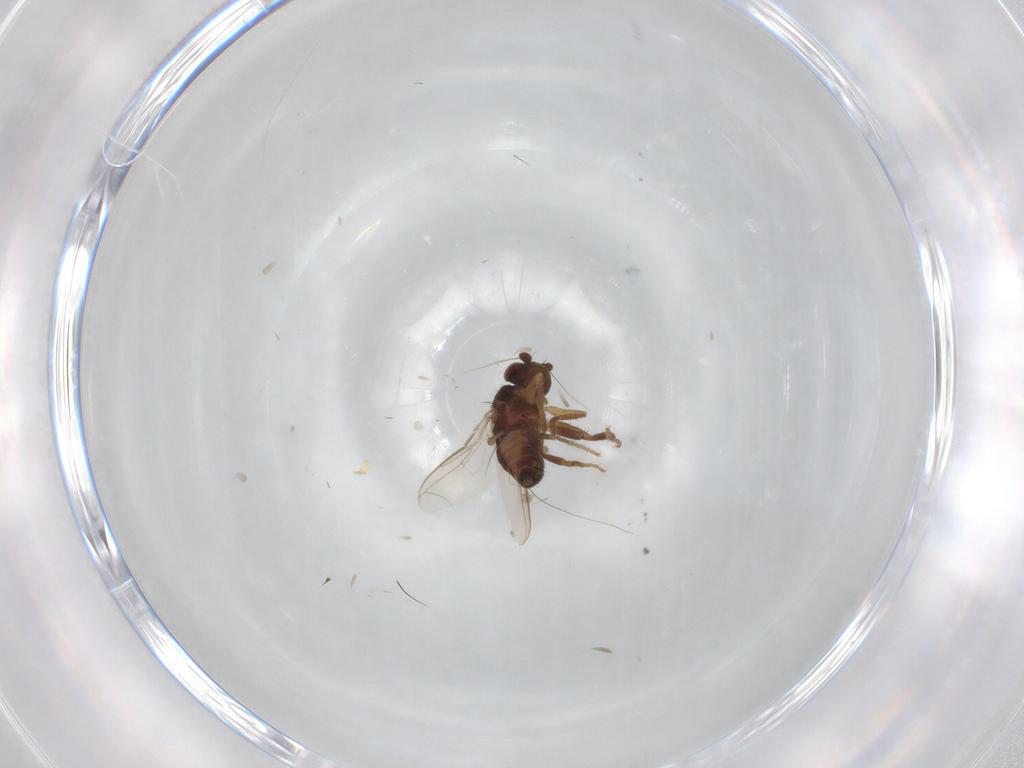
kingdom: Animalia
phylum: Arthropoda
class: Insecta
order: Diptera
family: Sphaeroceridae
